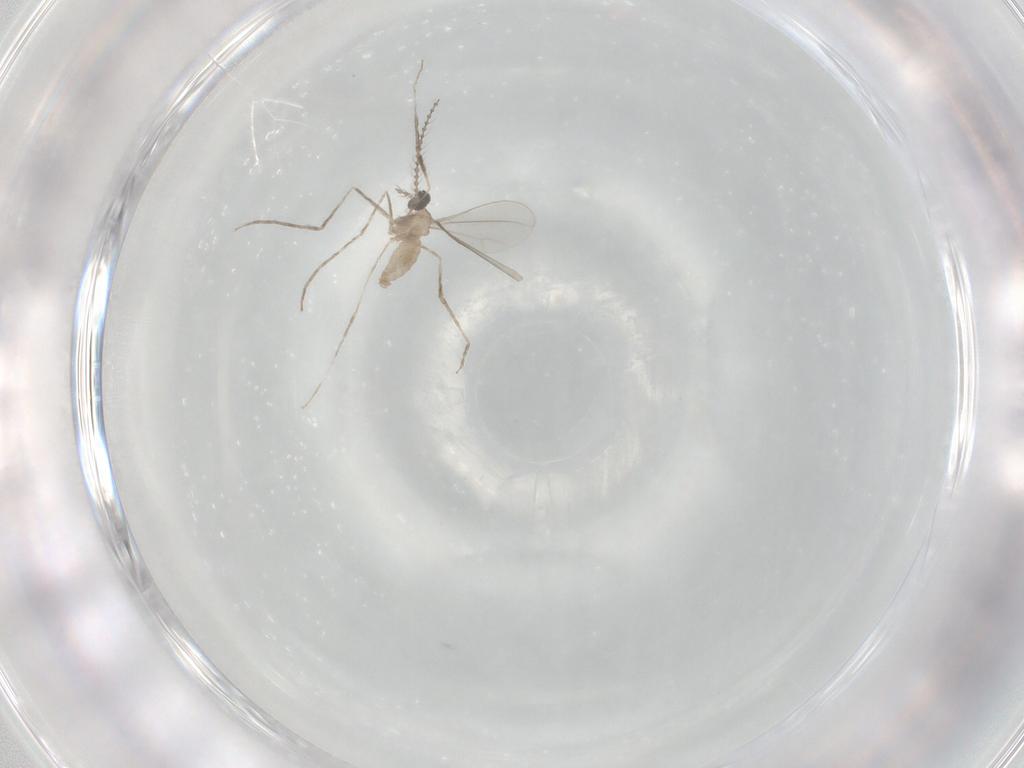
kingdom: Animalia
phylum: Arthropoda
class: Insecta
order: Diptera
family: Cecidomyiidae
